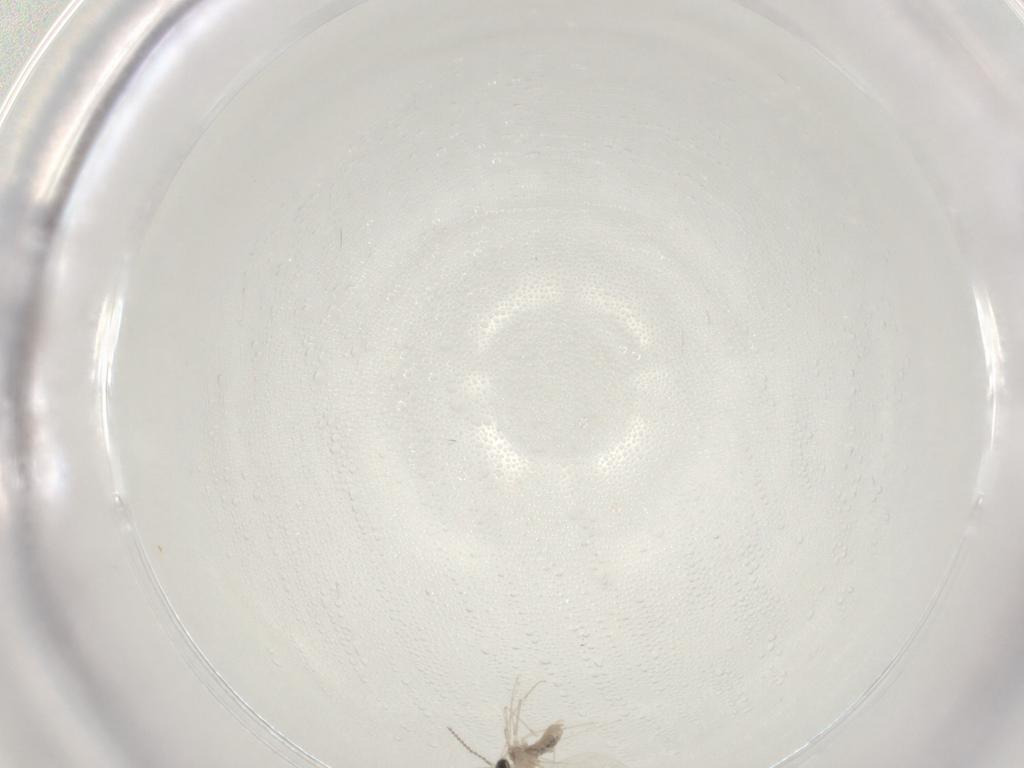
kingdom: Animalia
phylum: Arthropoda
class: Insecta
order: Diptera
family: Cecidomyiidae
